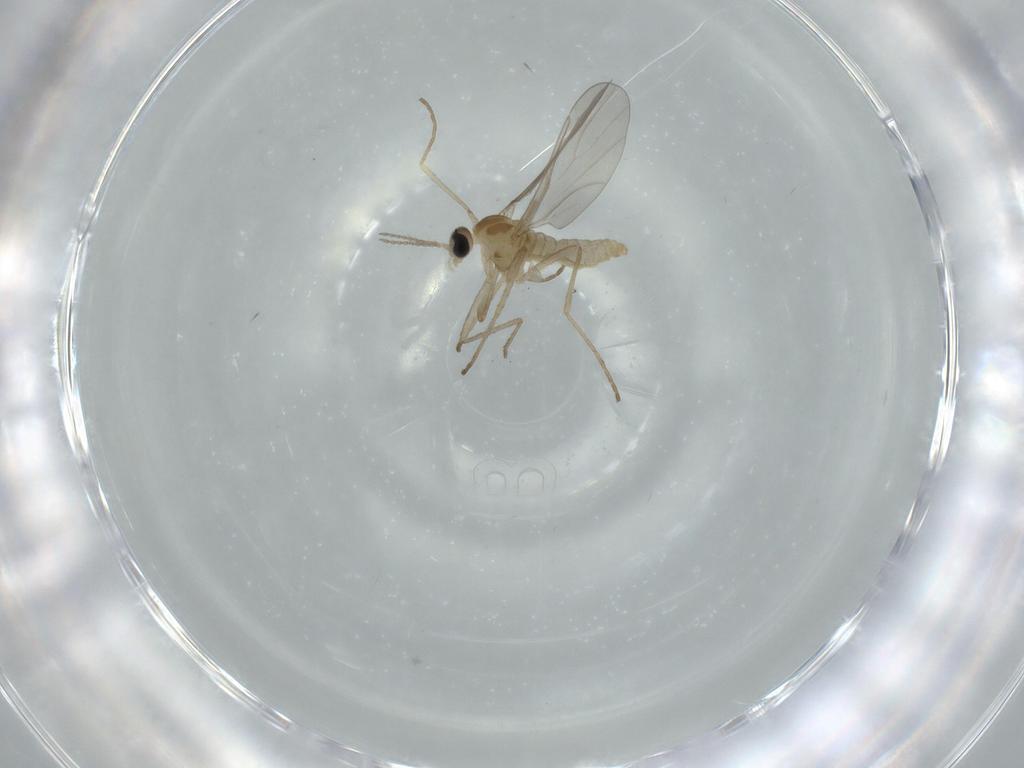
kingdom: Animalia
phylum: Arthropoda
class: Insecta
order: Diptera
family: Cecidomyiidae
